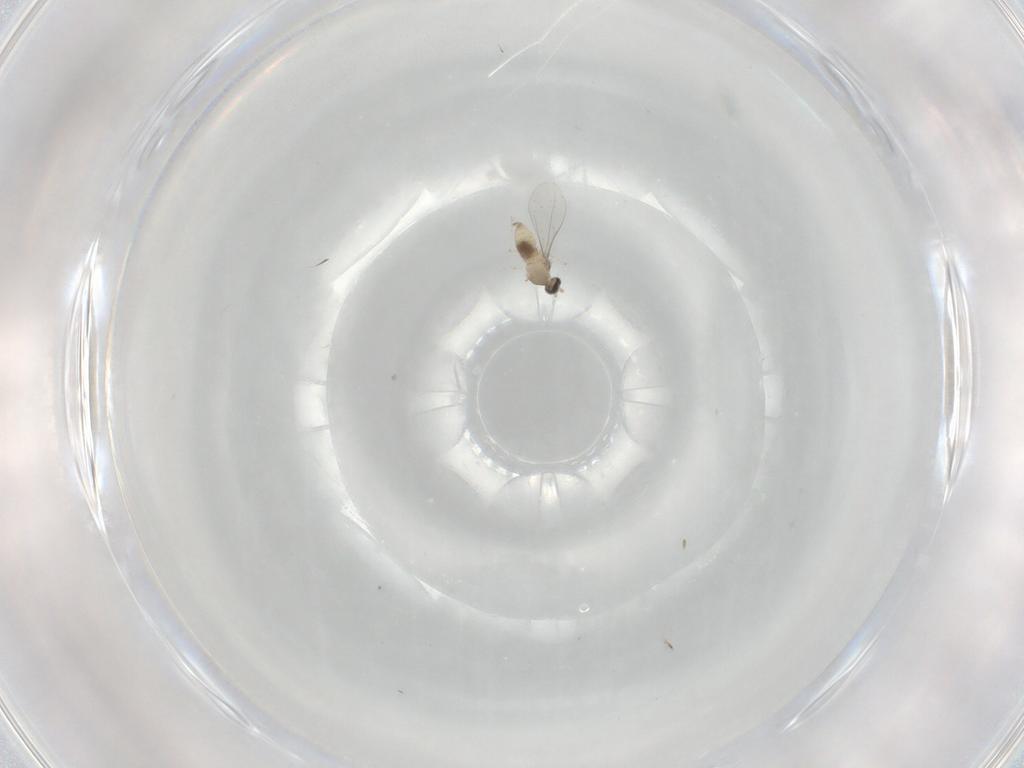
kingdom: Animalia
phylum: Arthropoda
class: Insecta
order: Diptera
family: Cecidomyiidae
